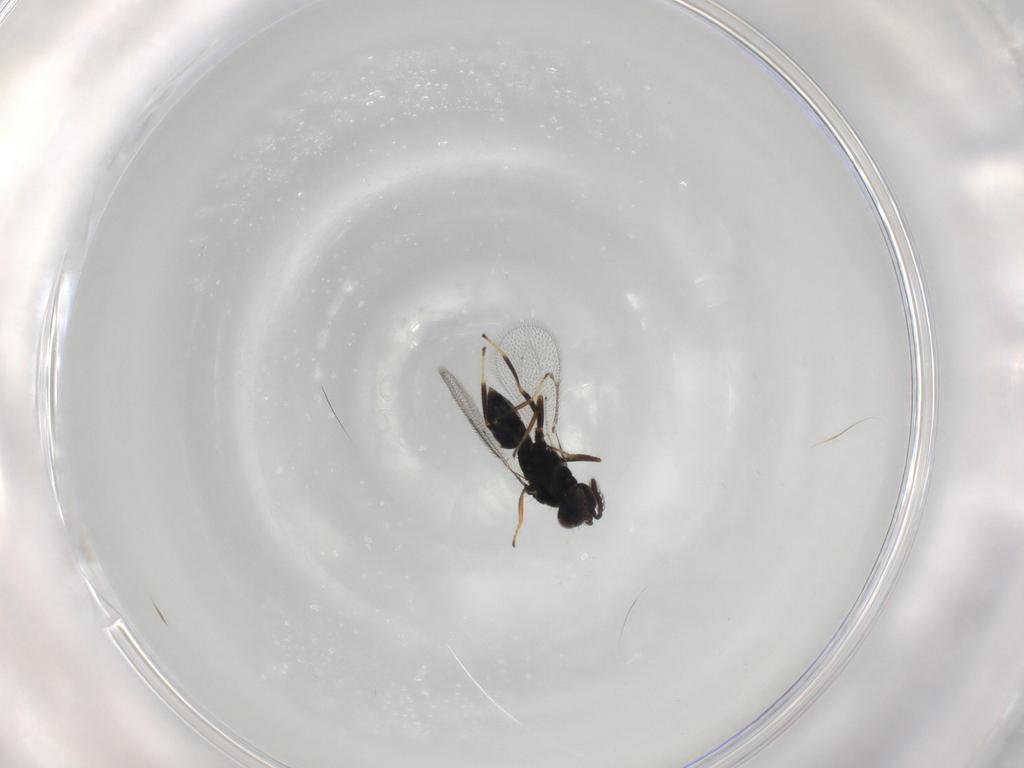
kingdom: Animalia
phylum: Arthropoda
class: Insecta
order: Hymenoptera
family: Eulophidae
